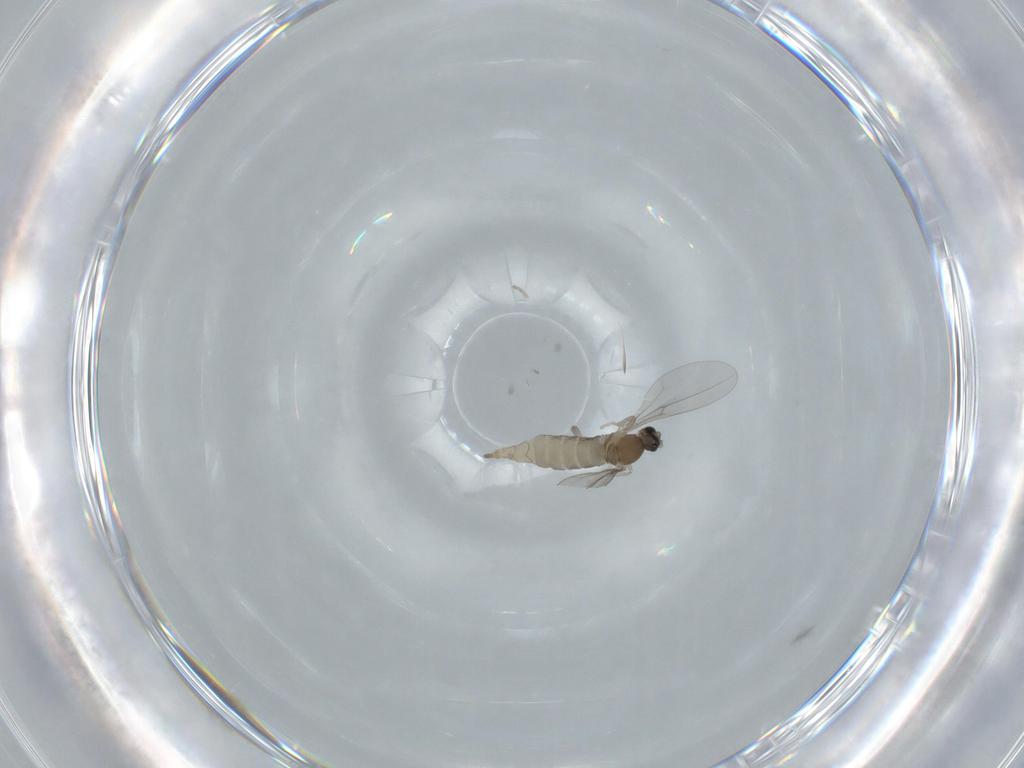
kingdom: Animalia
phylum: Arthropoda
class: Insecta
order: Diptera
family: Cecidomyiidae
